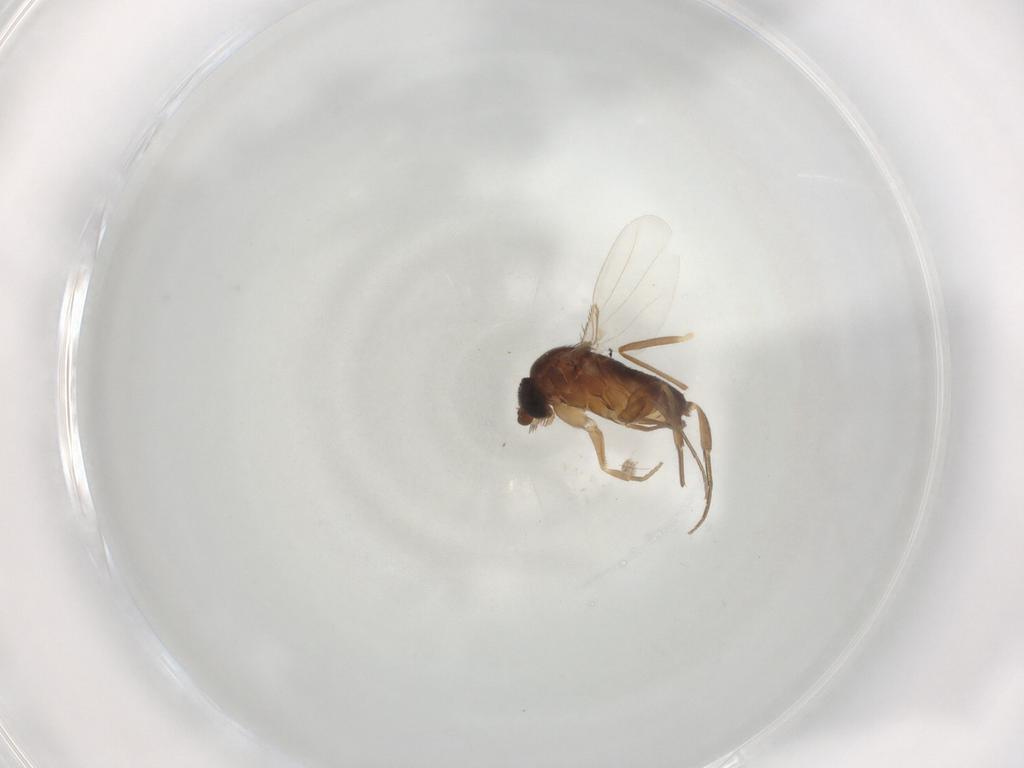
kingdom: Animalia
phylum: Arthropoda
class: Insecta
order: Diptera
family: Phoridae
